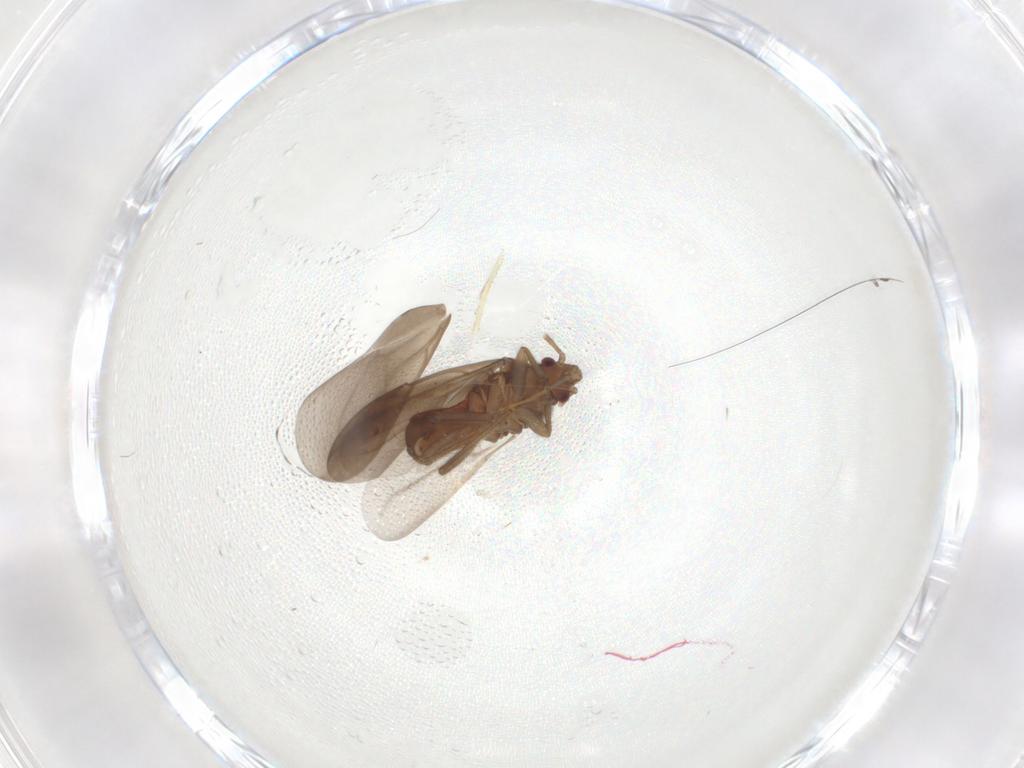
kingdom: Animalia
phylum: Arthropoda
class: Insecta
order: Hemiptera
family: Ceratocombidae
